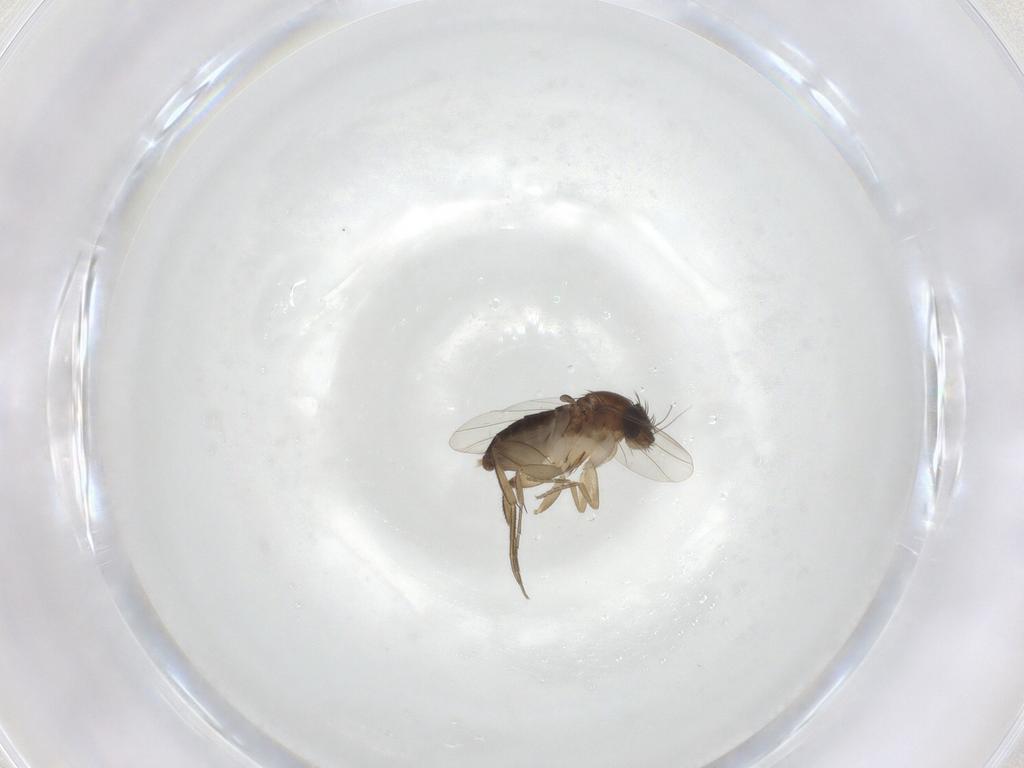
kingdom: Animalia
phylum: Arthropoda
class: Insecta
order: Diptera
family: Phoridae
